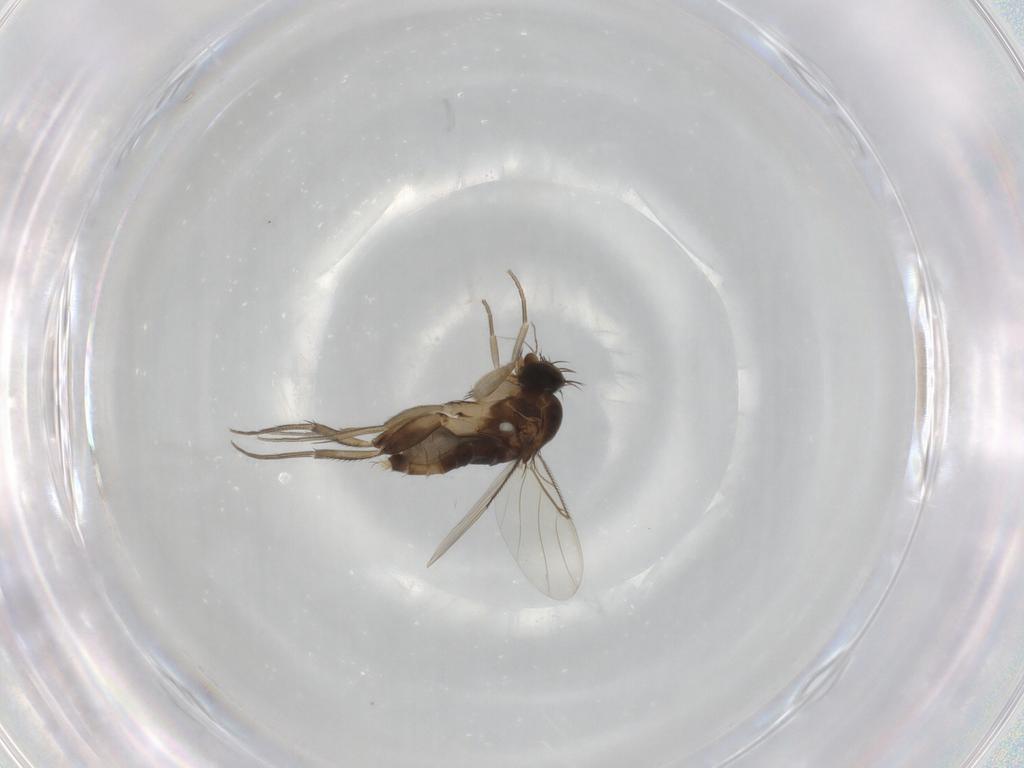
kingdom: Animalia
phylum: Arthropoda
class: Insecta
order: Diptera
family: Phoridae
